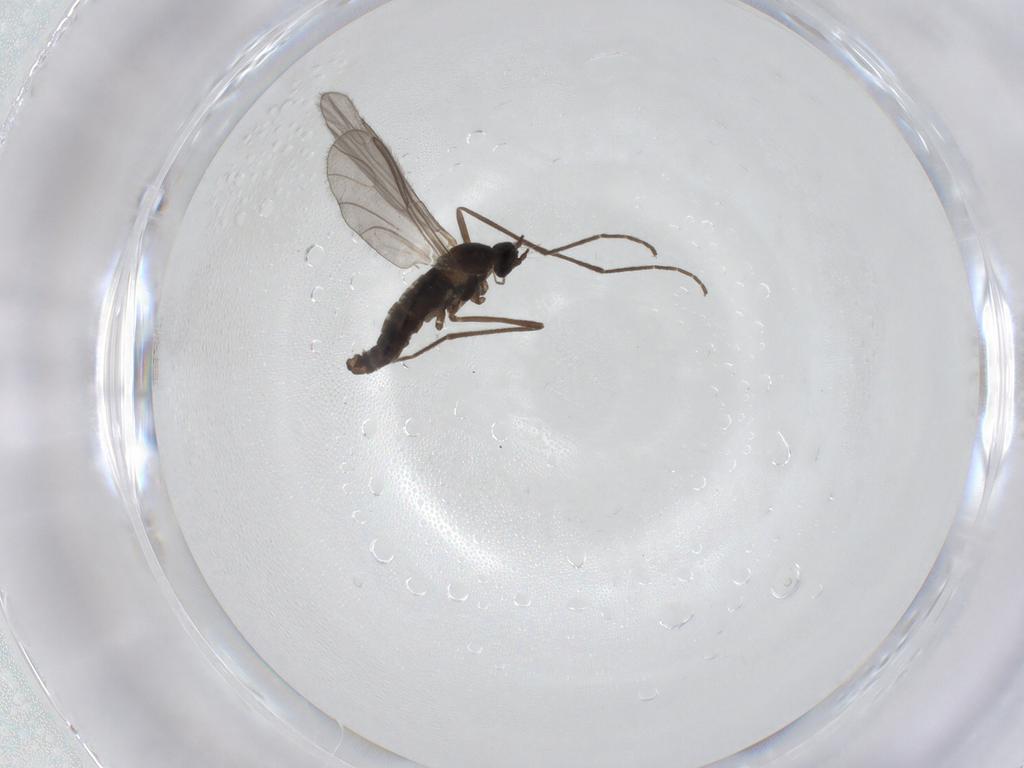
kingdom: Animalia
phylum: Arthropoda
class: Insecta
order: Diptera
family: Cecidomyiidae
